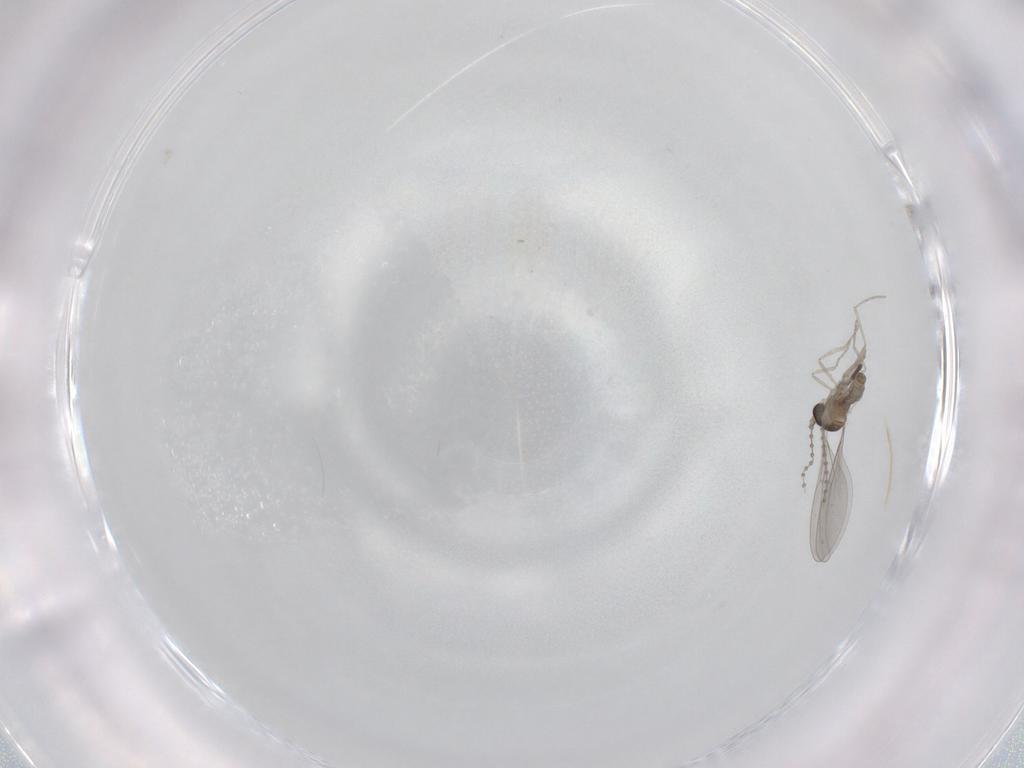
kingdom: Animalia
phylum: Arthropoda
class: Insecta
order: Diptera
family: Cecidomyiidae
